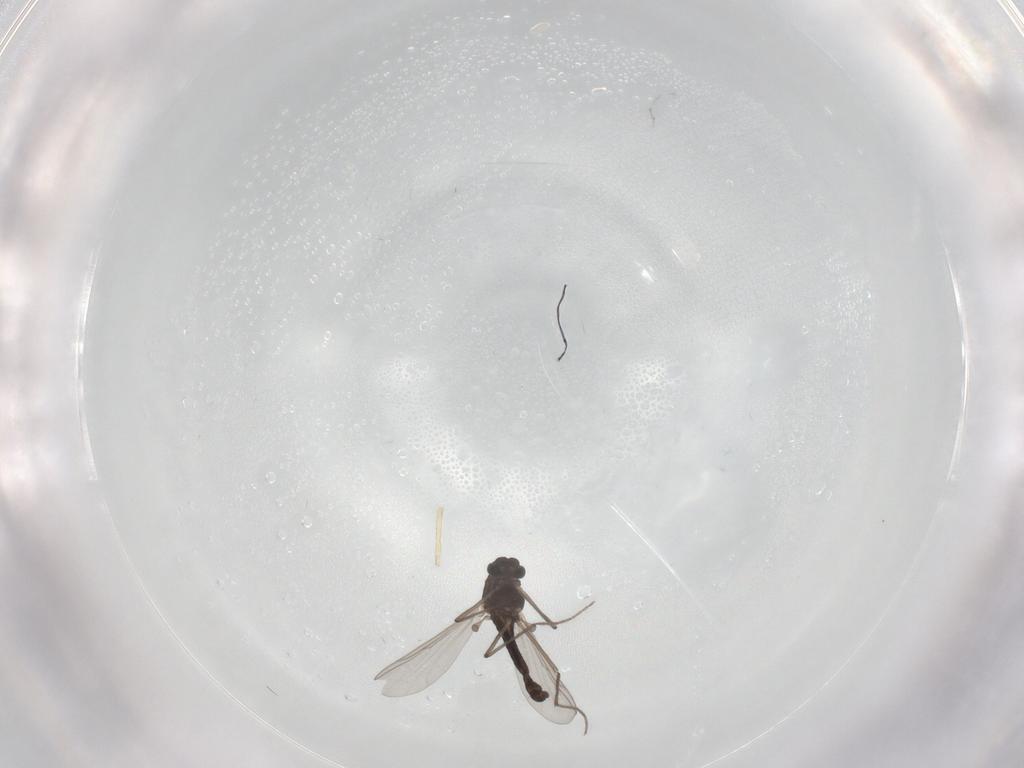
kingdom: Animalia
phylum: Arthropoda
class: Insecta
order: Diptera
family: Chironomidae
